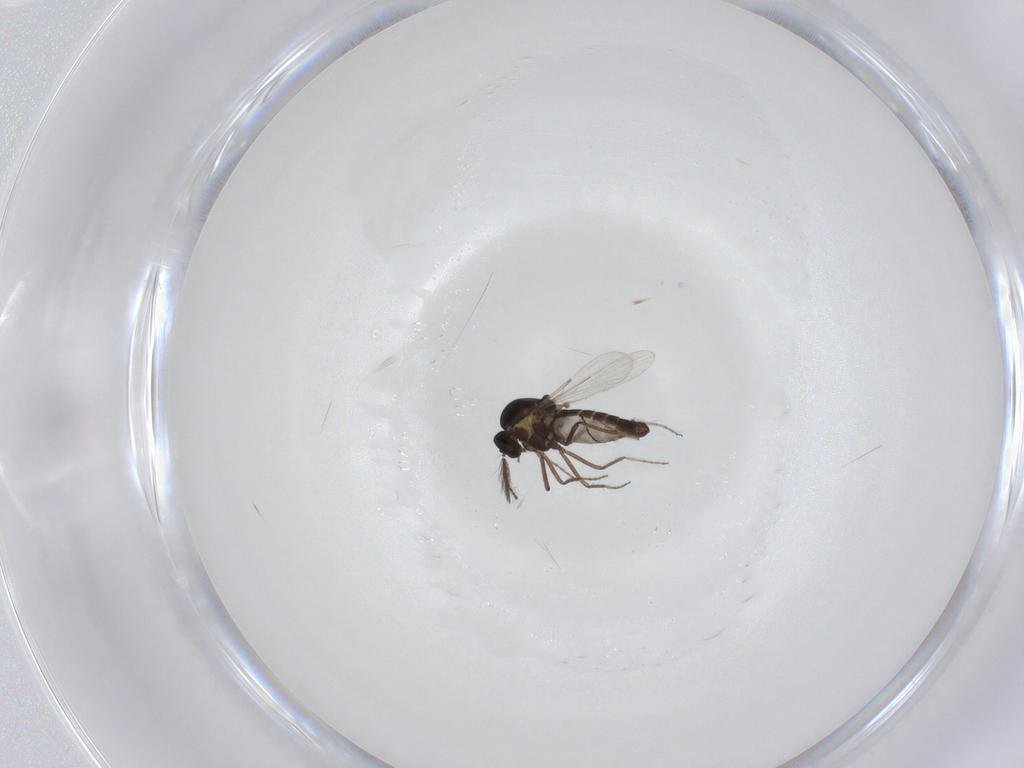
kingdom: Animalia
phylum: Arthropoda
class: Insecta
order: Diptera
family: Ceratopogonidae
